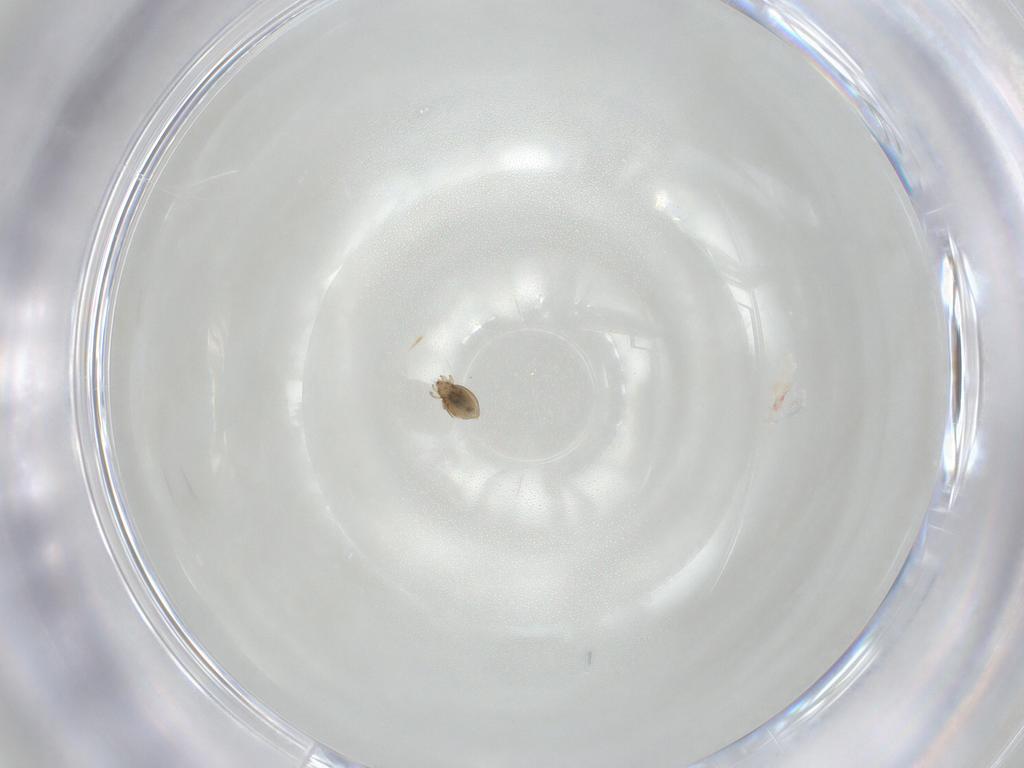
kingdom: Animalia
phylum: Arthropoda
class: Arachnida
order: Sarcoptiformes
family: Oribatulidae
